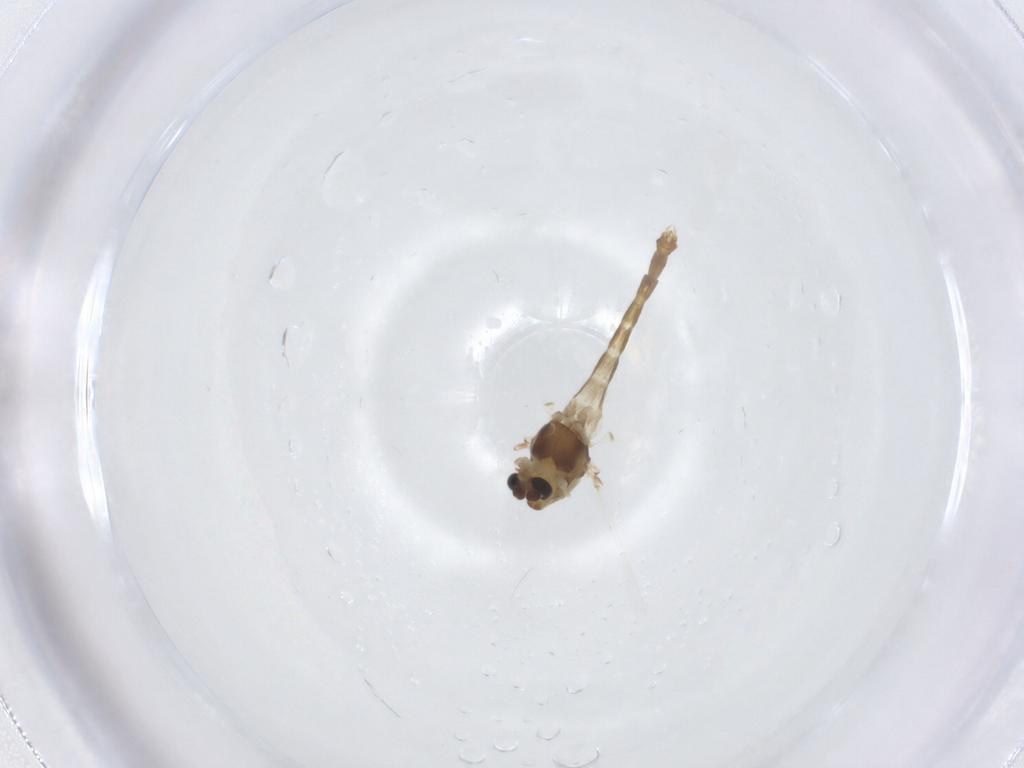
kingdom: Animalia
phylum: Arthropoda
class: Insecta
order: Diptera
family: Chironomidae
